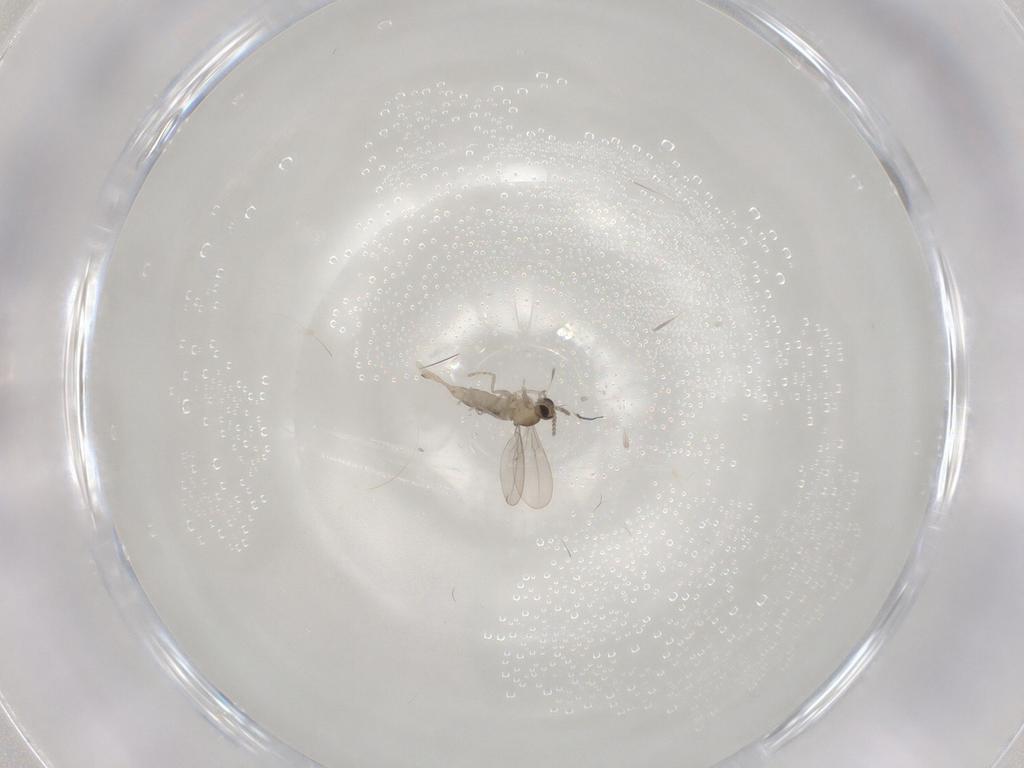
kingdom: Animalia
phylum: Arthropoda
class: Insecta
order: Diptera
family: Cecidomyiidae
